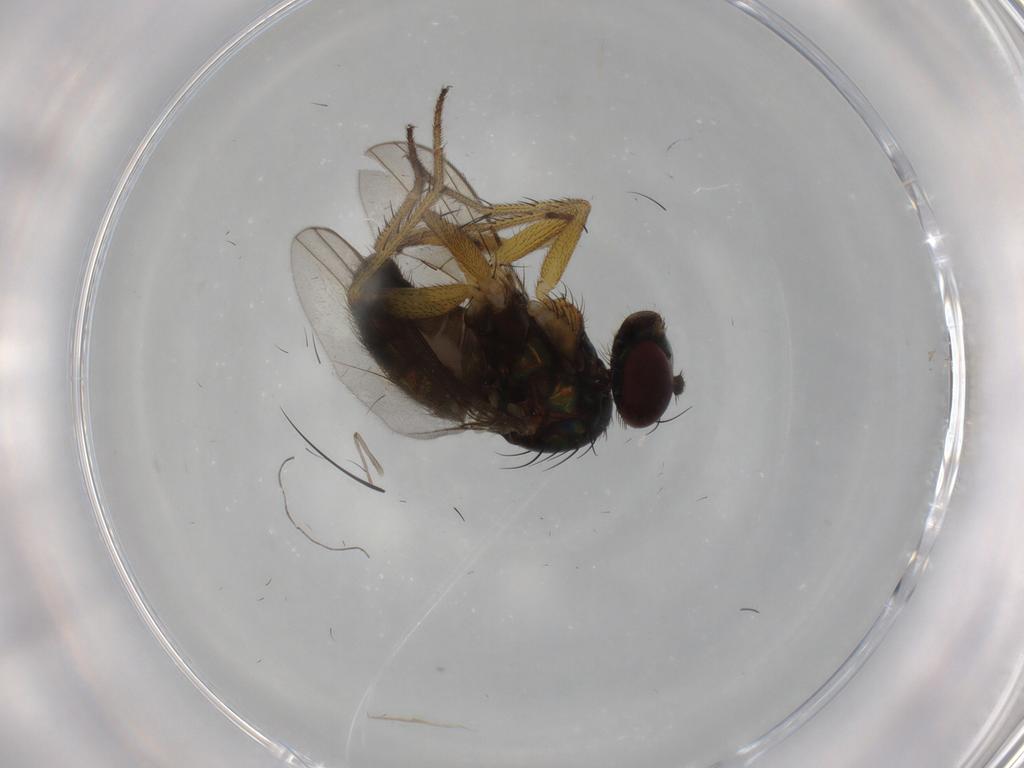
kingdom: Animalia
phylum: Arthropoda
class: Insecta
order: Diptera
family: Dolichopodidae
